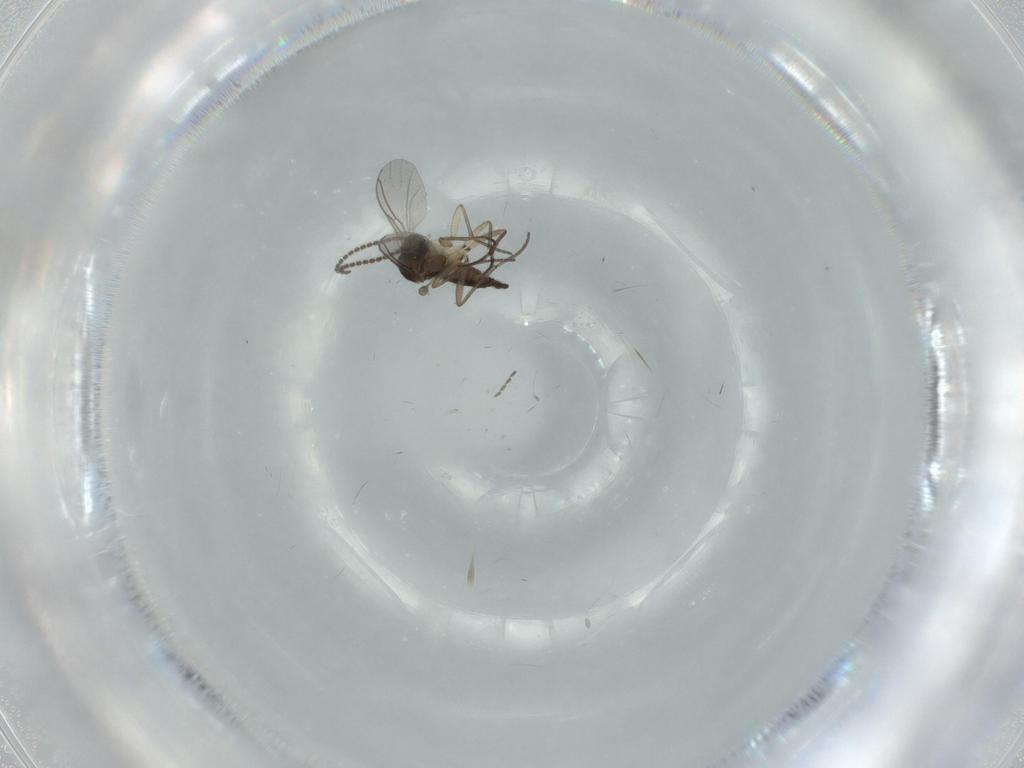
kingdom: Animalia
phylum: Arthropoda
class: Insecta
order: Diptera
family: Sciaridae
